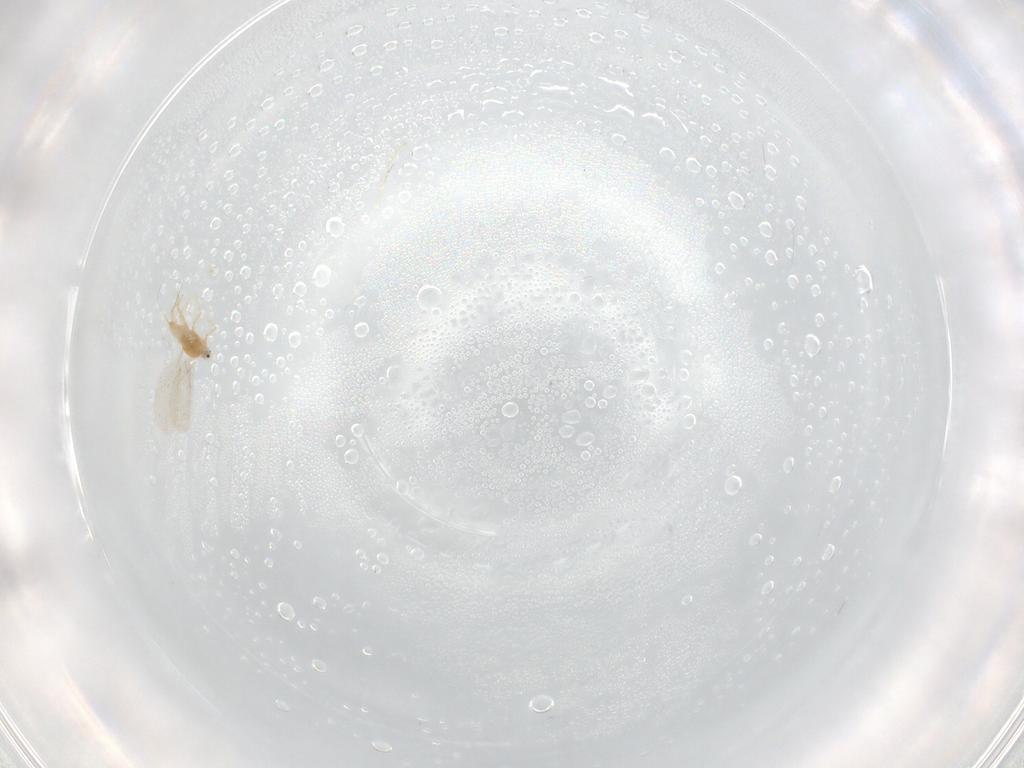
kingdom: Animalia
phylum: Arthropoda
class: Insecta
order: Hemiptera
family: Diaspididae
